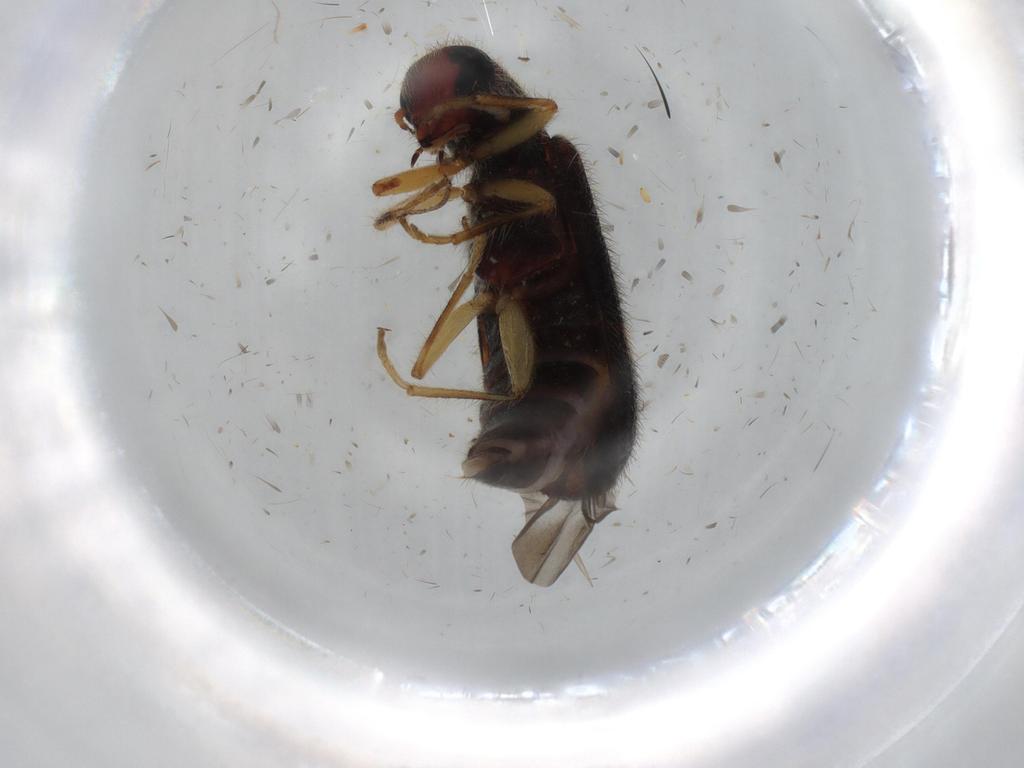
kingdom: Animalia
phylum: Arthropoda
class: Insecta
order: Coleoptera
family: Cleridae
